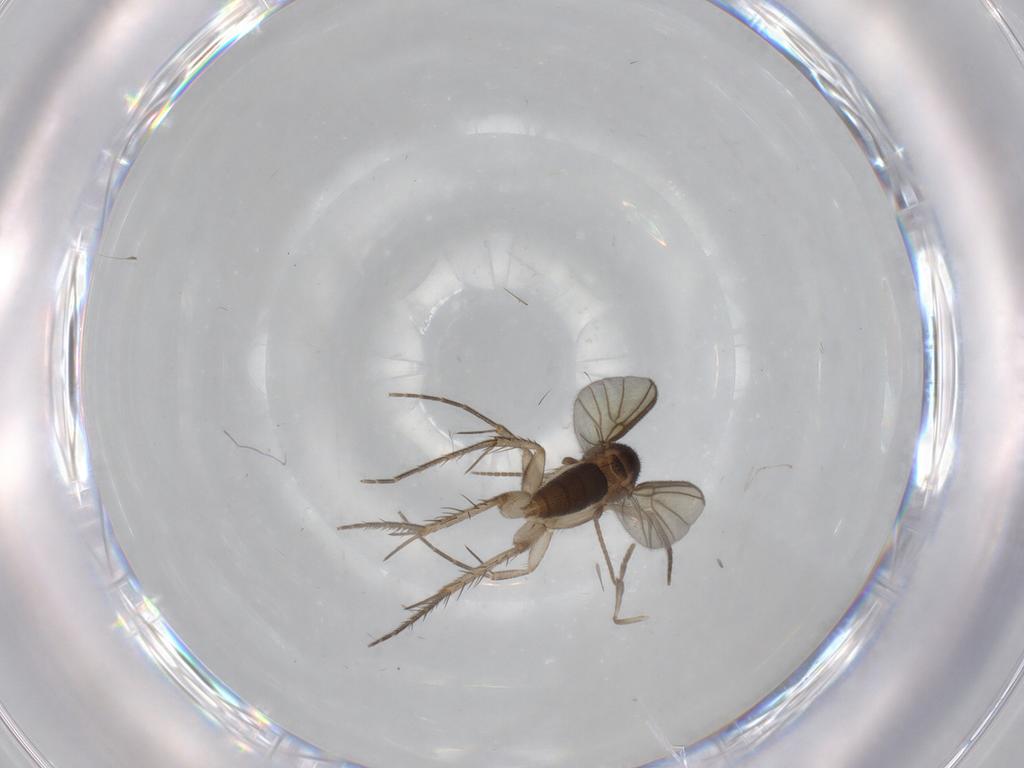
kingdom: Animalia
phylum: Arthropoda
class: Insecta
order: Diptera
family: Mycetophilidae
